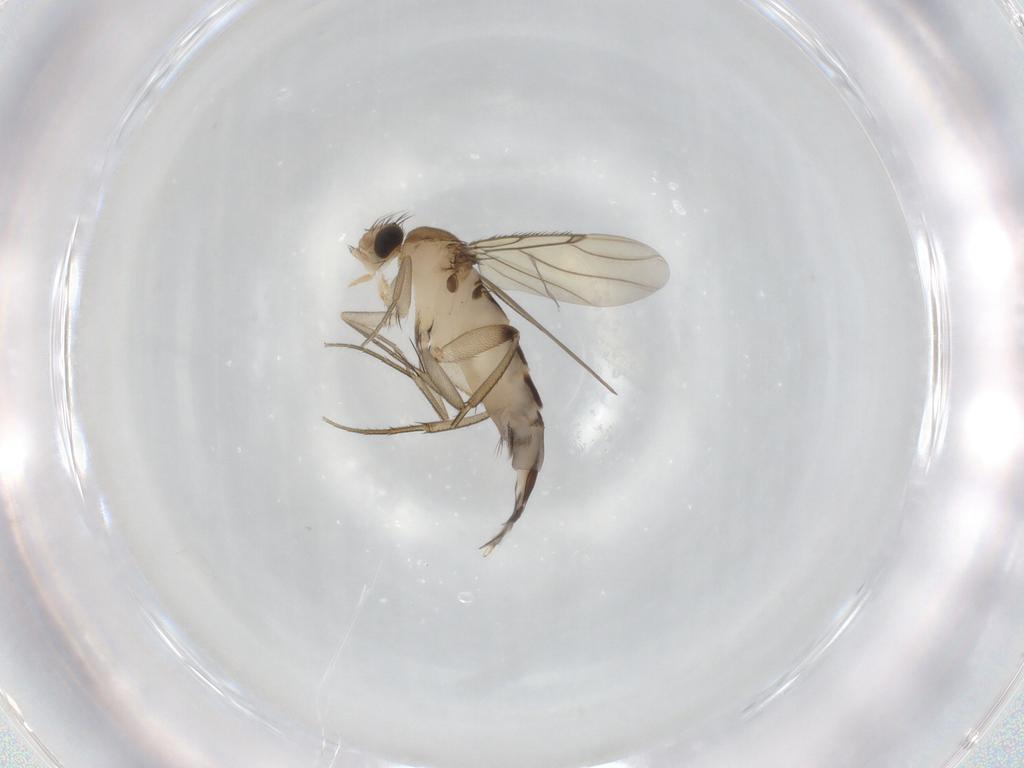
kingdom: Animalia
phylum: Arthropoda
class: Insecta
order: Diptera
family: Phoridae
